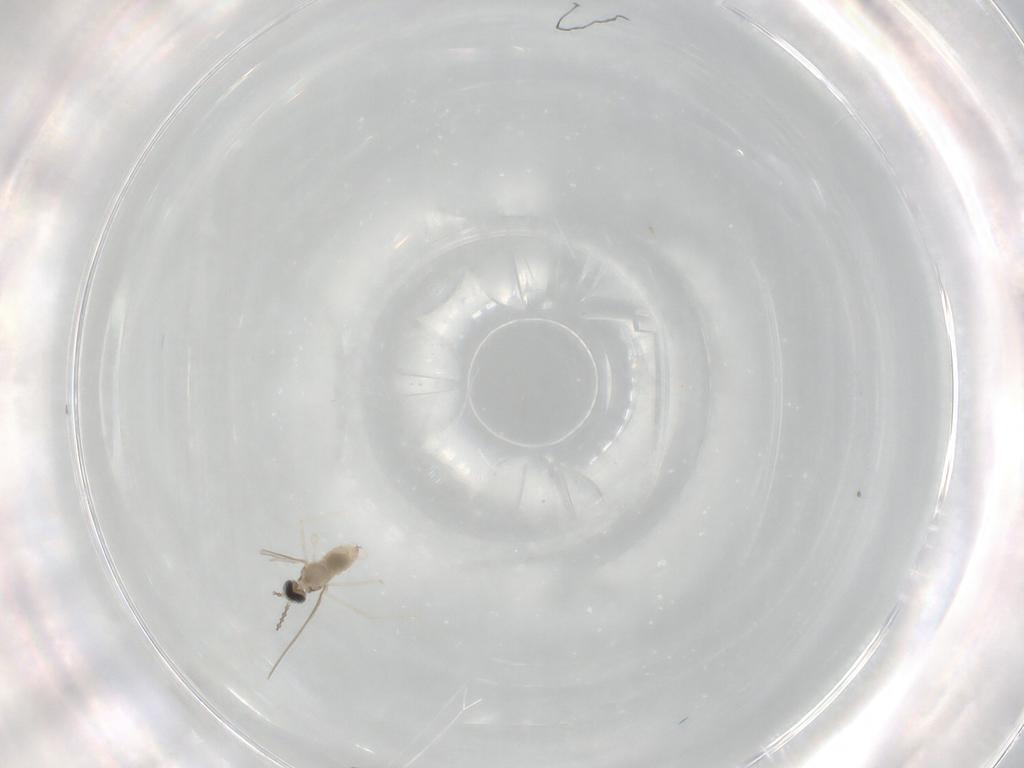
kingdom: Animalia
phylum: Arthropoda
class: Insecta
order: Diptera
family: Cecidomyiidae
